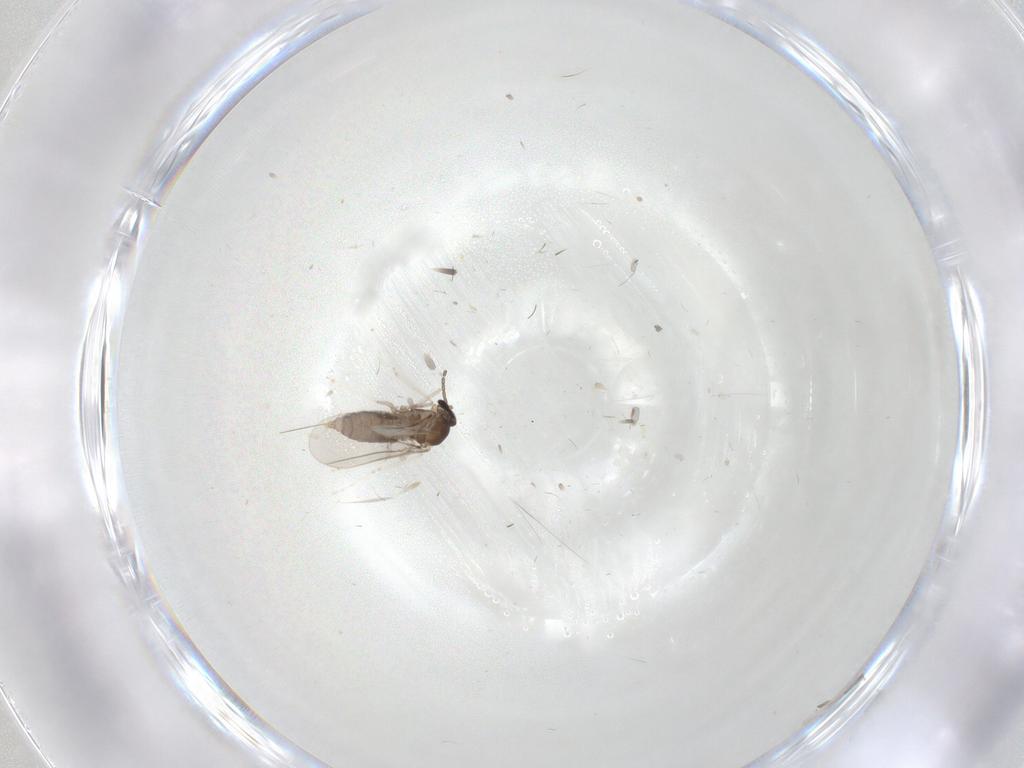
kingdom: Animalia
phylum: Arthropoda
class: Insecta
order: Diptera
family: Cecidomyiidae
